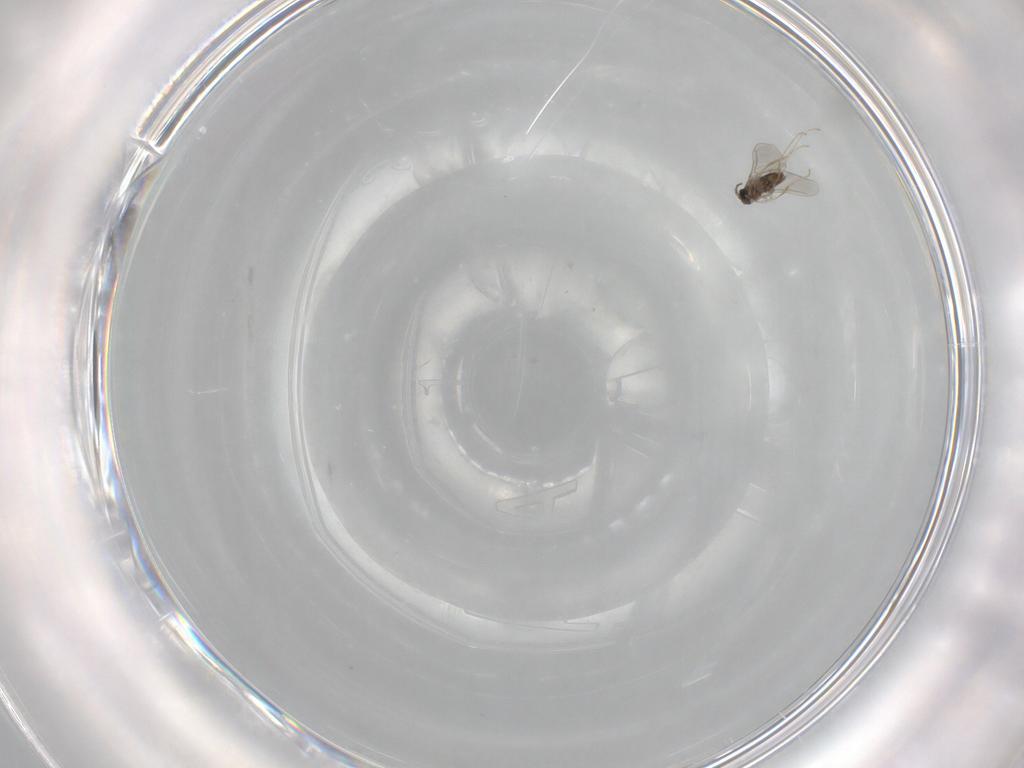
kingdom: Animalia
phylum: Arthropoda
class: Insecta
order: Diptera
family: Cecidomyiidae
